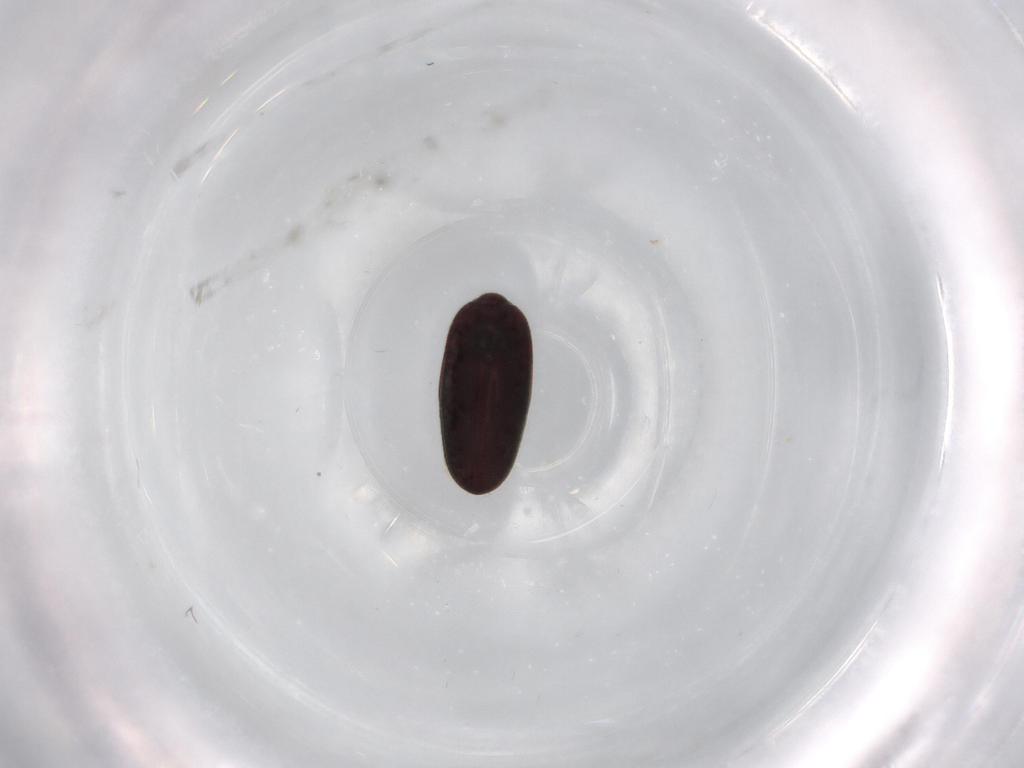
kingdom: Animalia
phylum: Arthropoda
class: Insecta
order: Coleoptera
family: Throscidae
